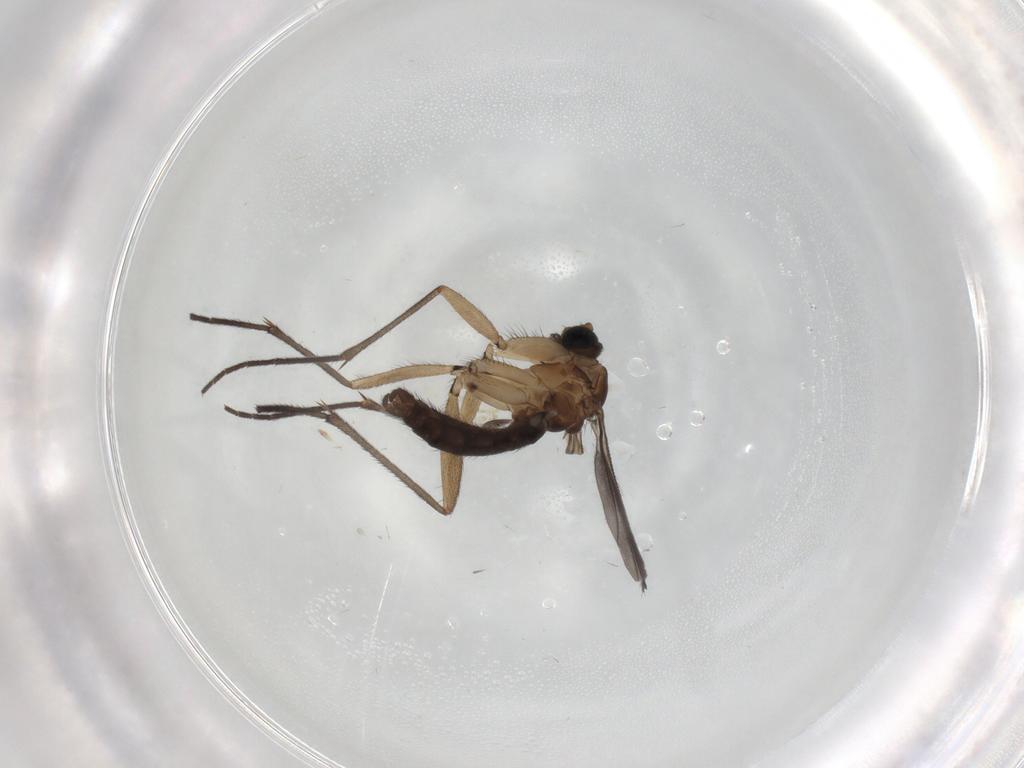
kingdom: Animalia
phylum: Arthropoda
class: Insecta
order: Diptera
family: Sciaridae
